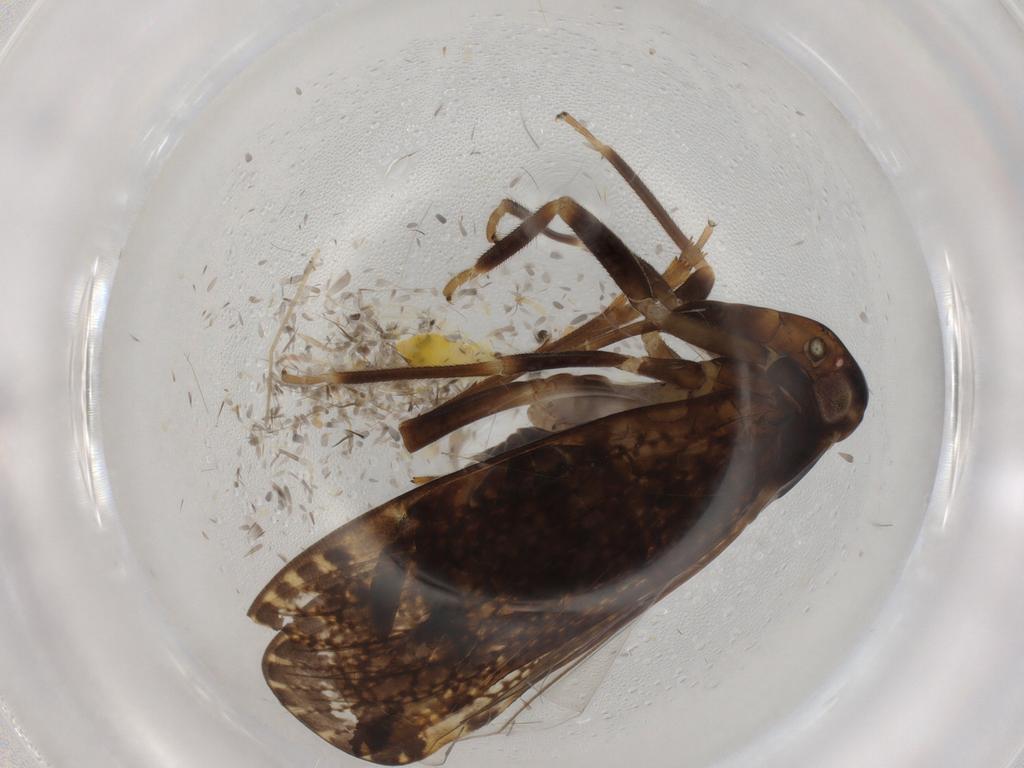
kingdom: Animalia
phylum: Arthropoda
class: Insecta
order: Hemiptera
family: Aleyrodidae
